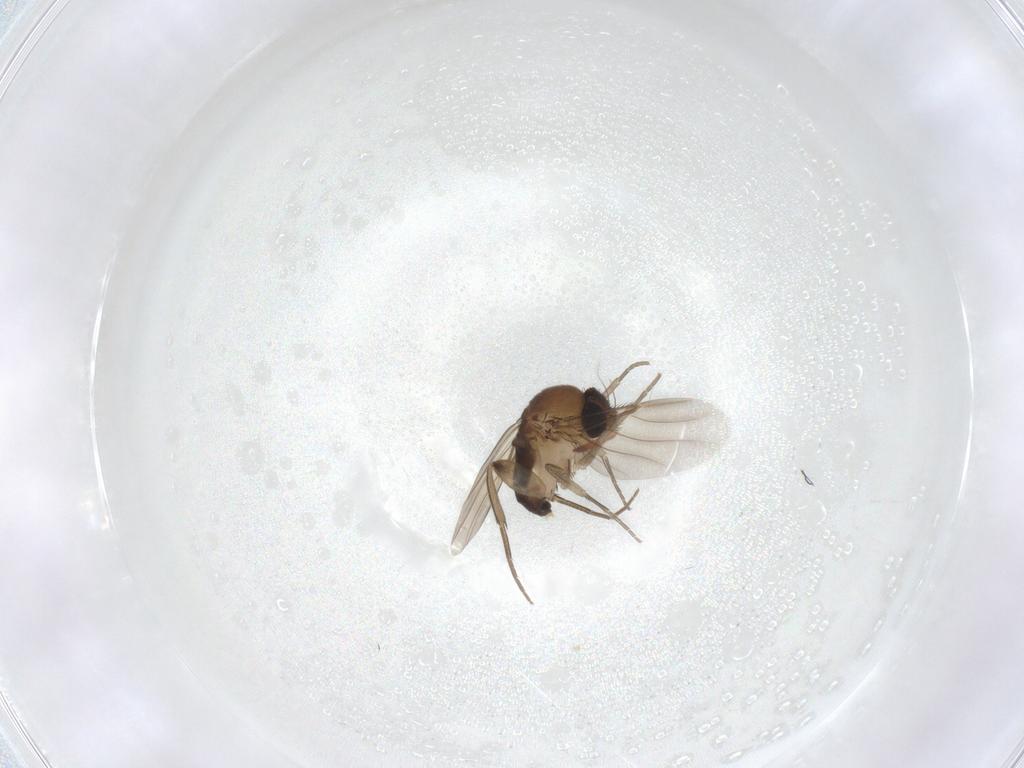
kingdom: Animalia
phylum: Arthropoda
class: Insecta
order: Diptera
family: Phoridae
